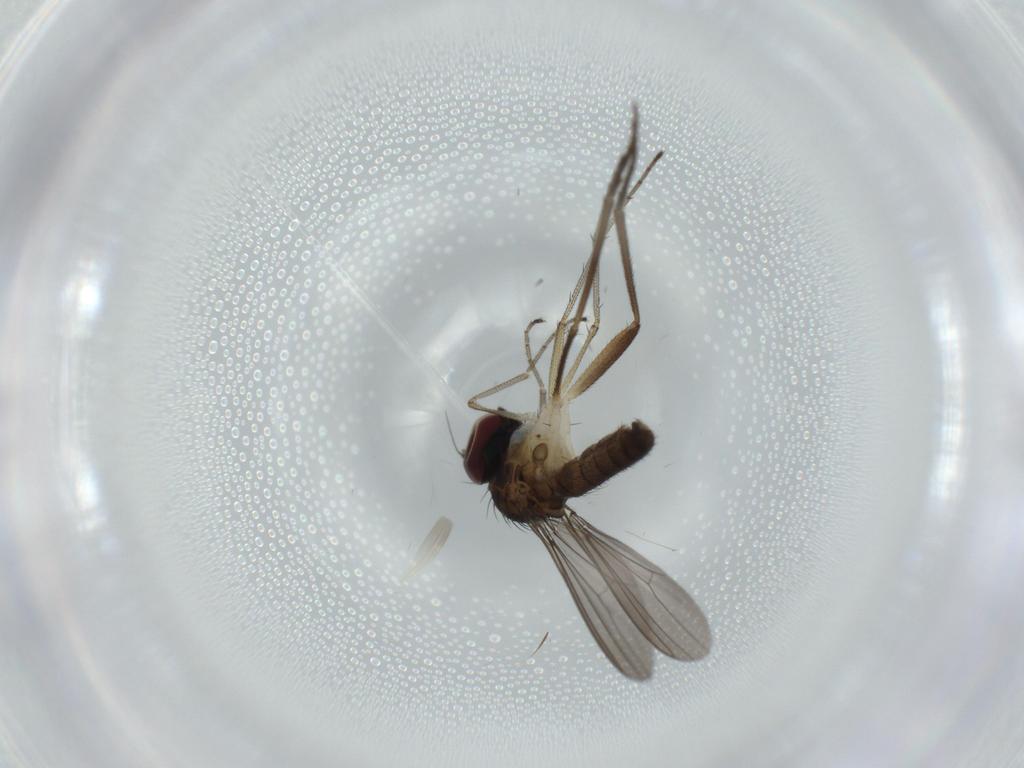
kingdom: Animalia
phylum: Arthropoda
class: Insecta
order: Diptera
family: Dolichopodidae
